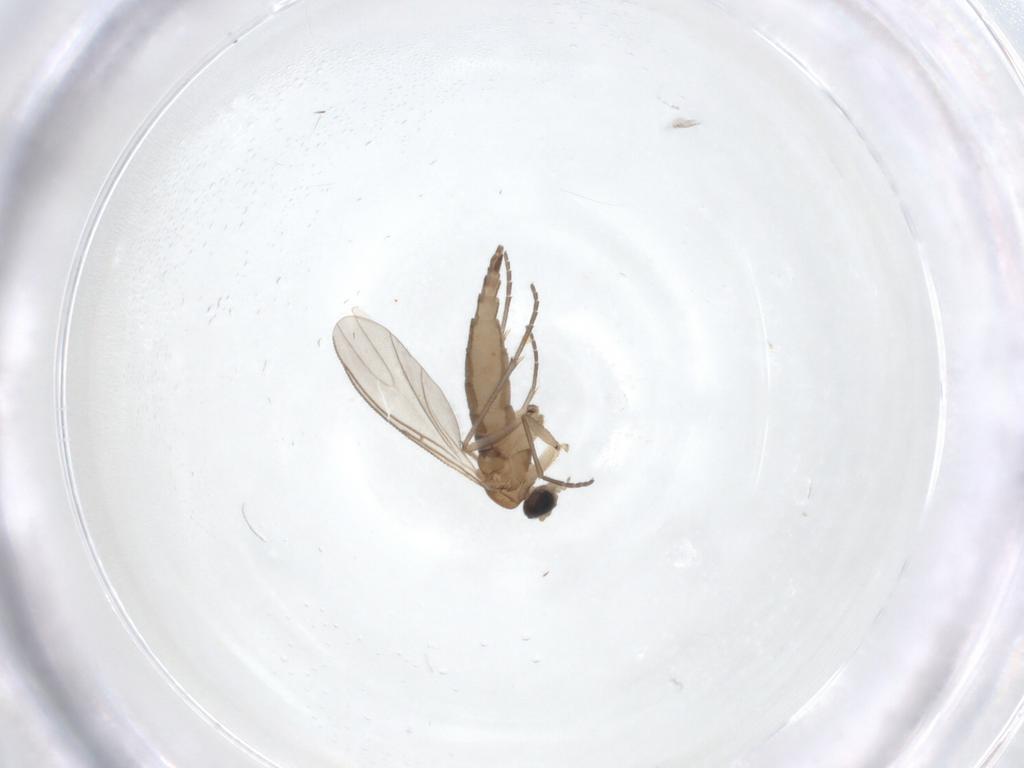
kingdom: Animalia
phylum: Arthropoda
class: Insecta
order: Diptera
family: Sciaridae
